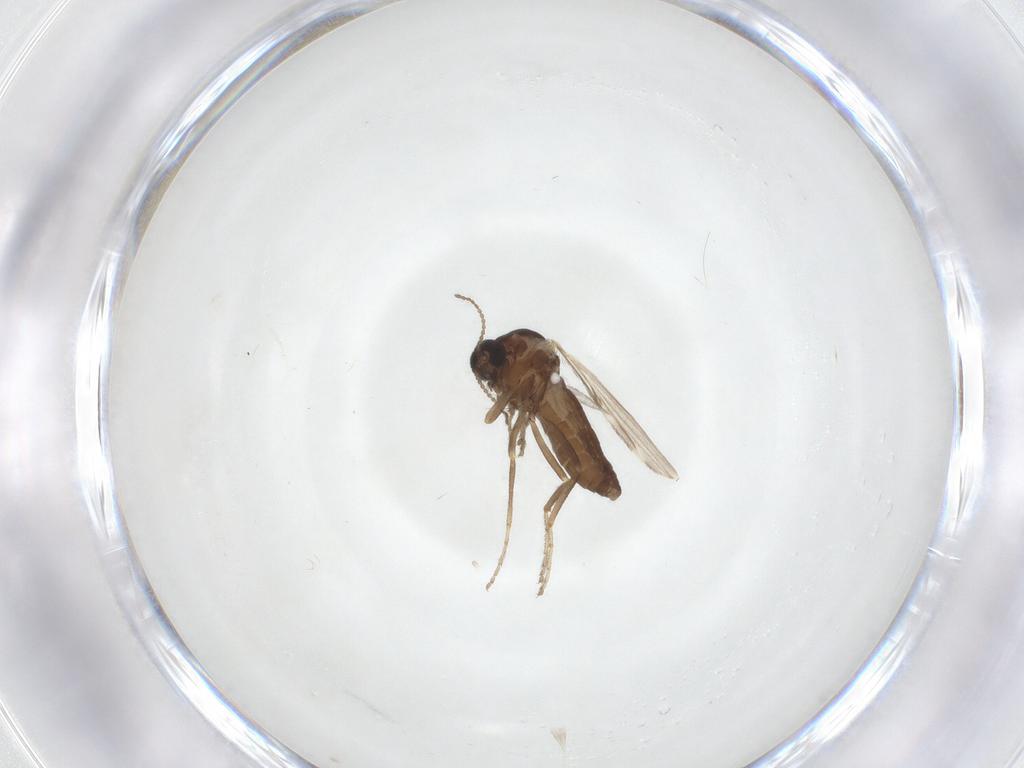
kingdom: Animalia
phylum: Arthropoda
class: Insecta
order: Diptera
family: Ceratopogonidae
